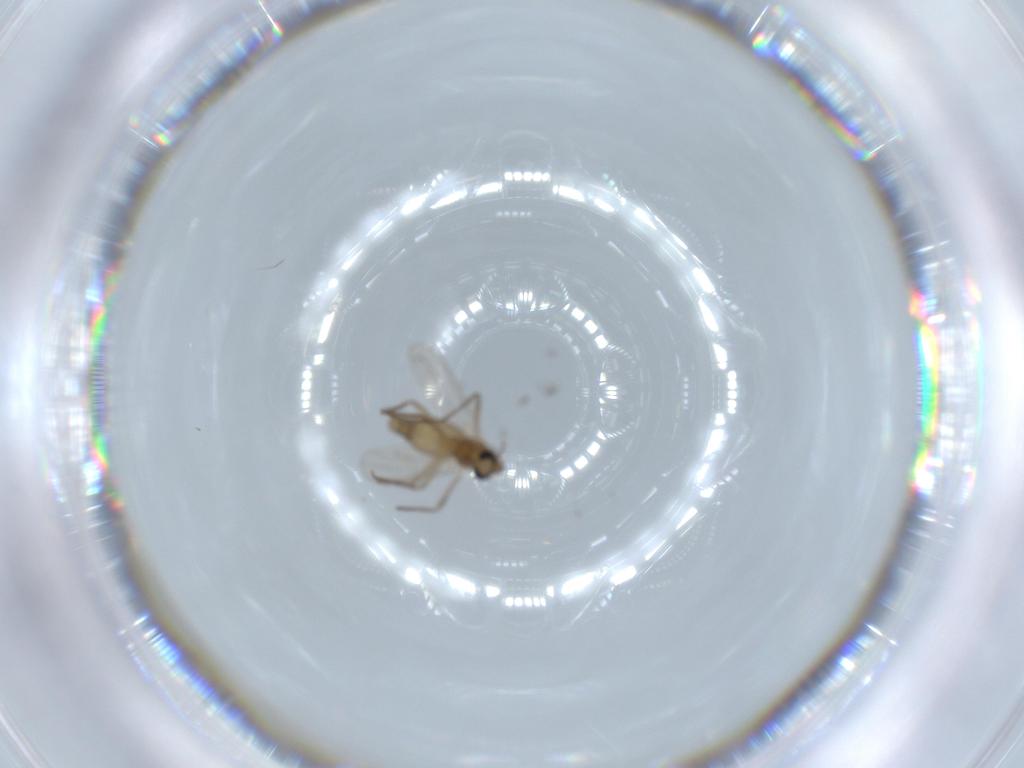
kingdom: Animalia
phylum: Arthropoda
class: Insecta
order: Diptera
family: Chironomidae
